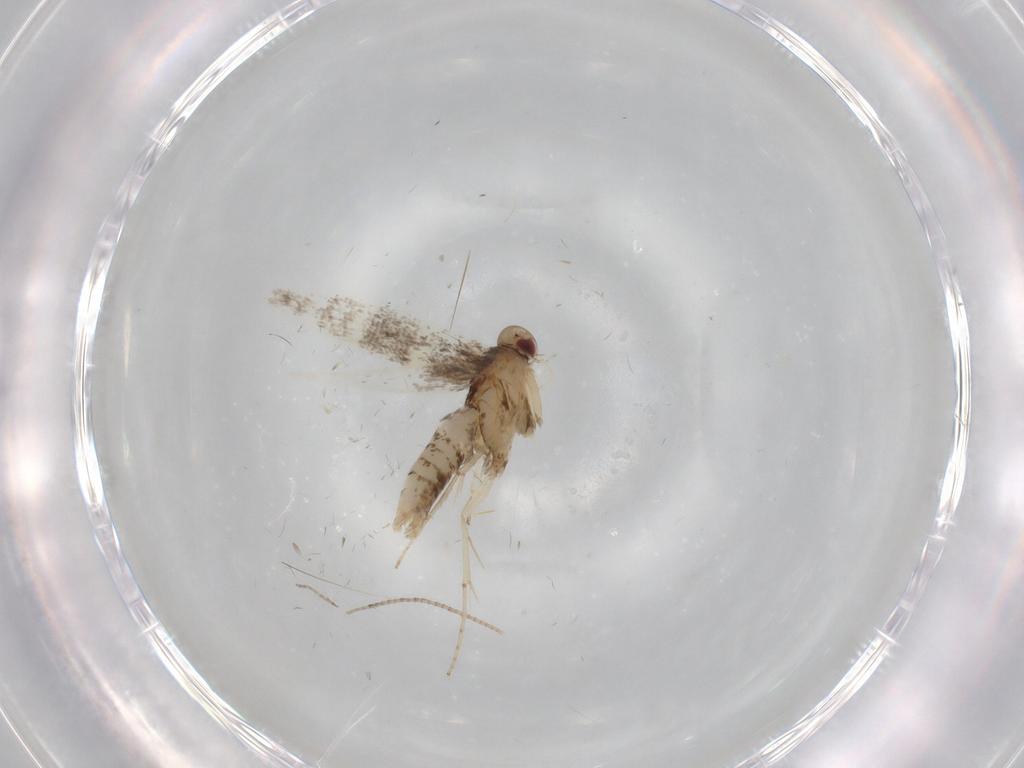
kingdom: Animalia
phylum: Arthropoda
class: Insecta
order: Lepidoptera
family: Gracillariidae
